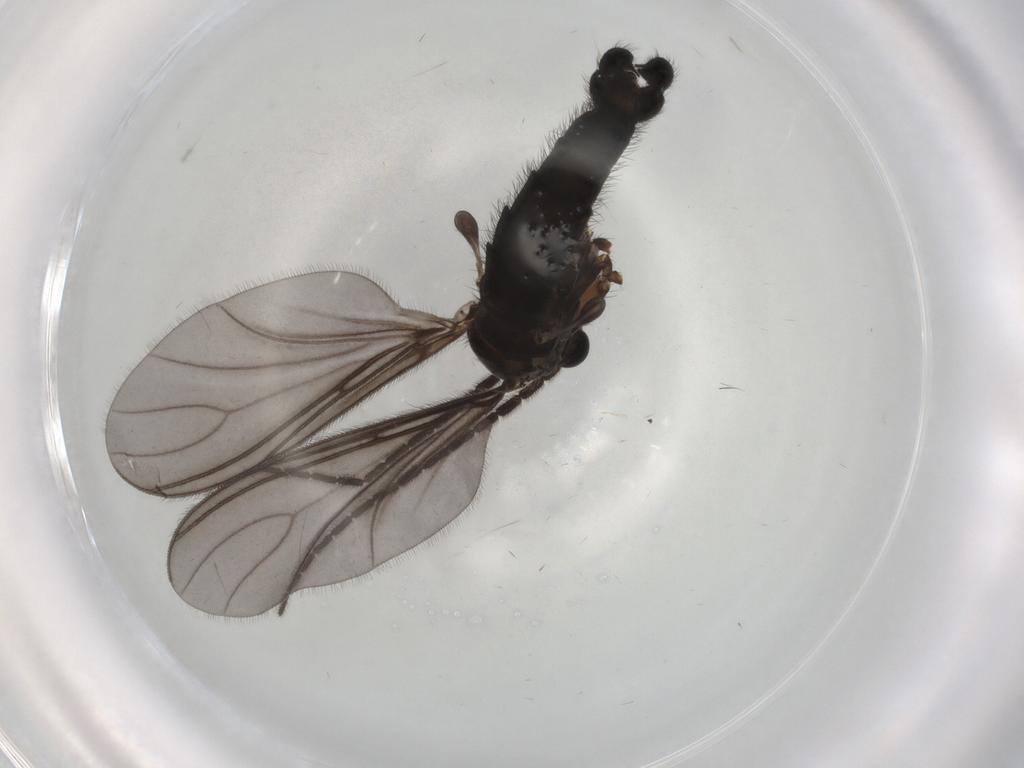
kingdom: Animalia
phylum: Arthropoda
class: Insecta
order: Diptera
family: Sciaridae
